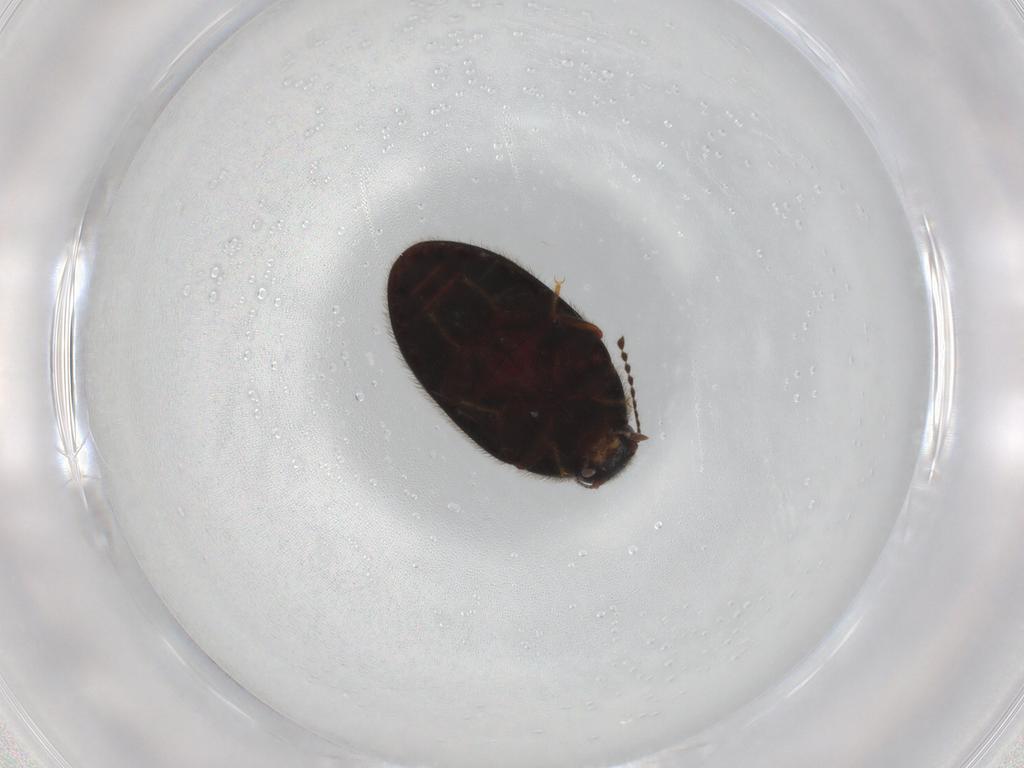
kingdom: Animalia
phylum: Arthropoda
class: Insecta
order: Coleoptera
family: Limnichidae
